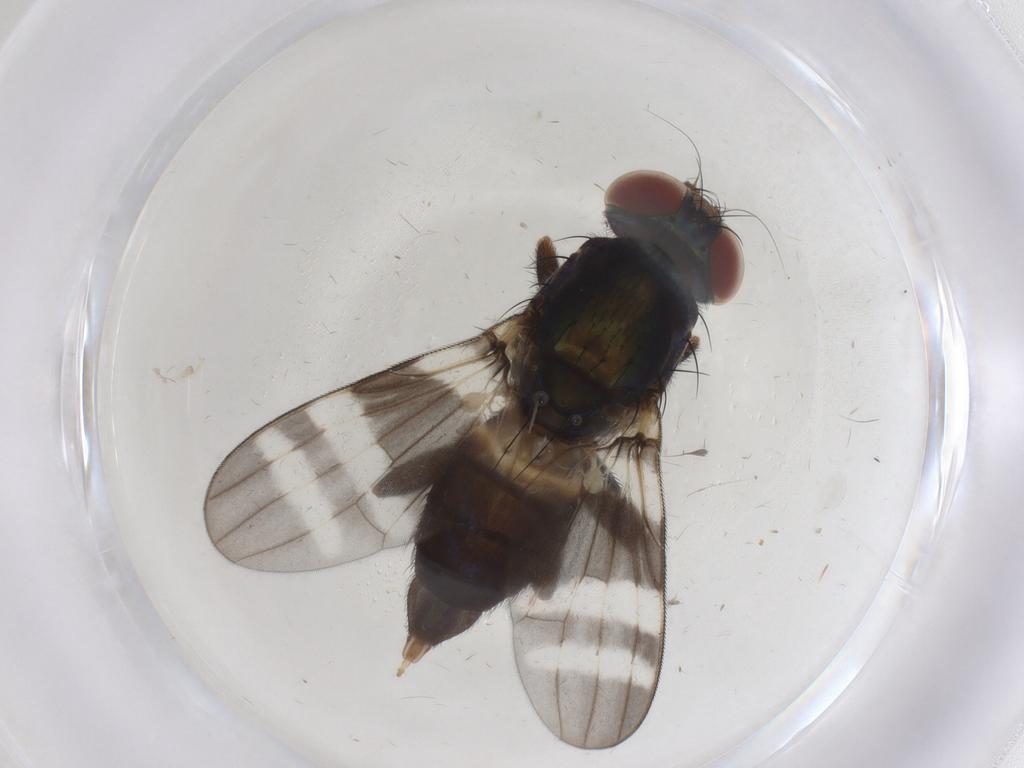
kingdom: Animalia
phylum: Arthropoda
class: Insecta
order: Diptera
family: Ulidiidae
